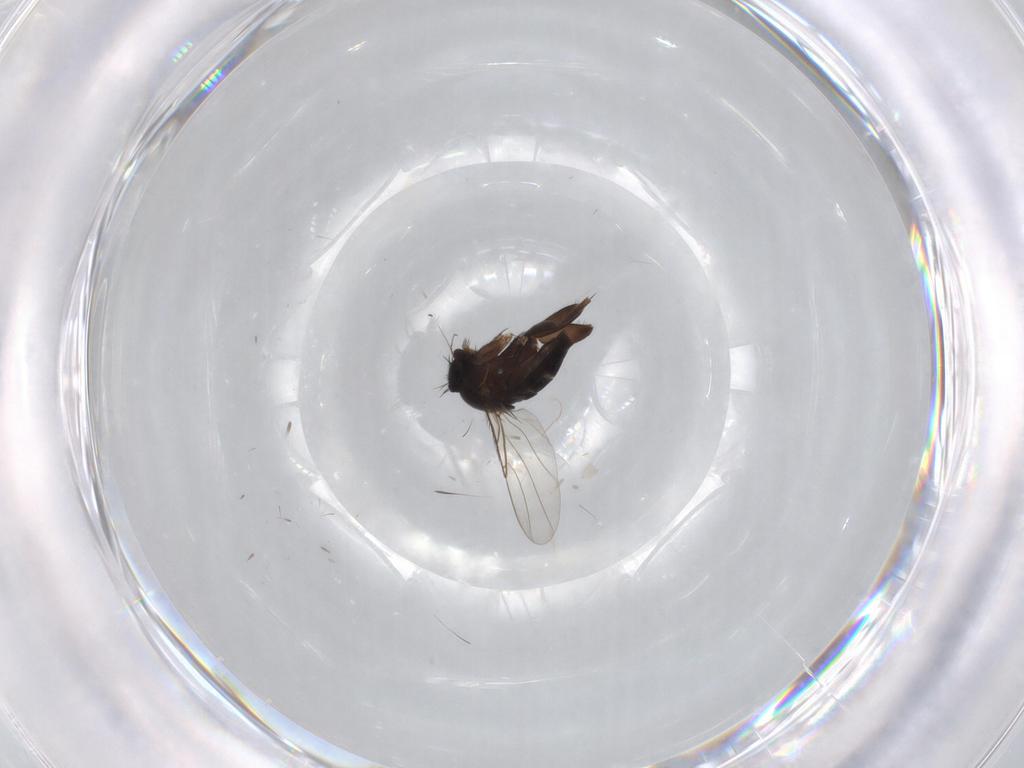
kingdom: Animalia
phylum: Arthropoda
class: Insecta
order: Diptera
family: Phoridae
